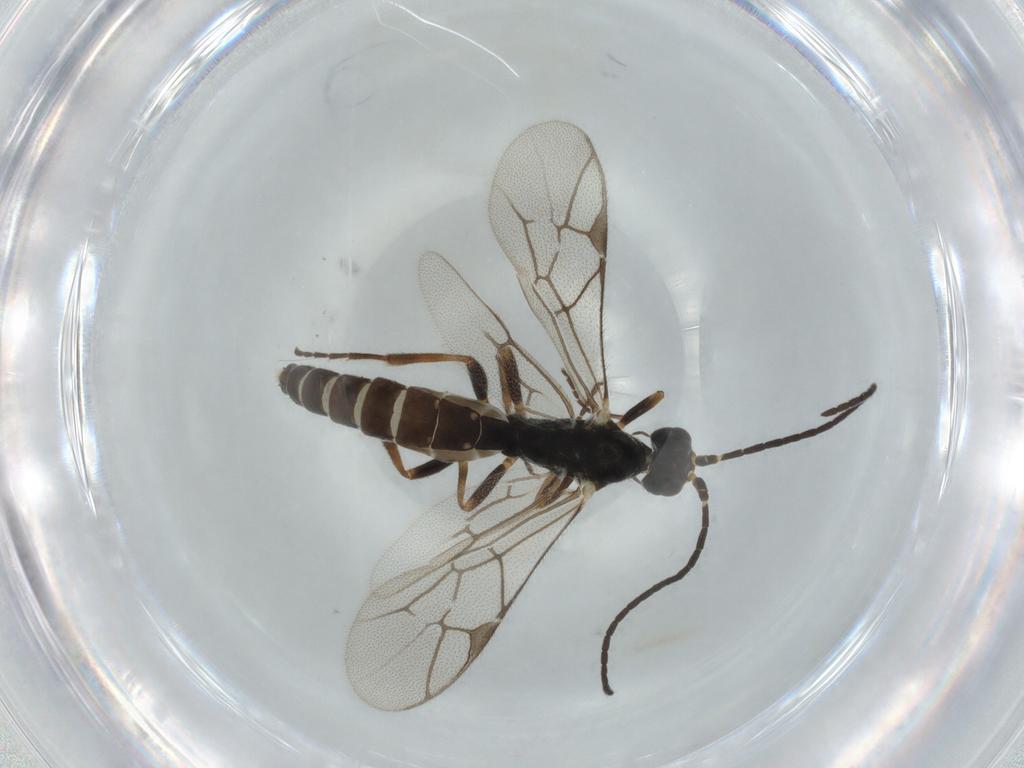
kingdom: Animalia
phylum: Arthropoda
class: Insecta
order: Hymenoptera
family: Ichneumonidae
